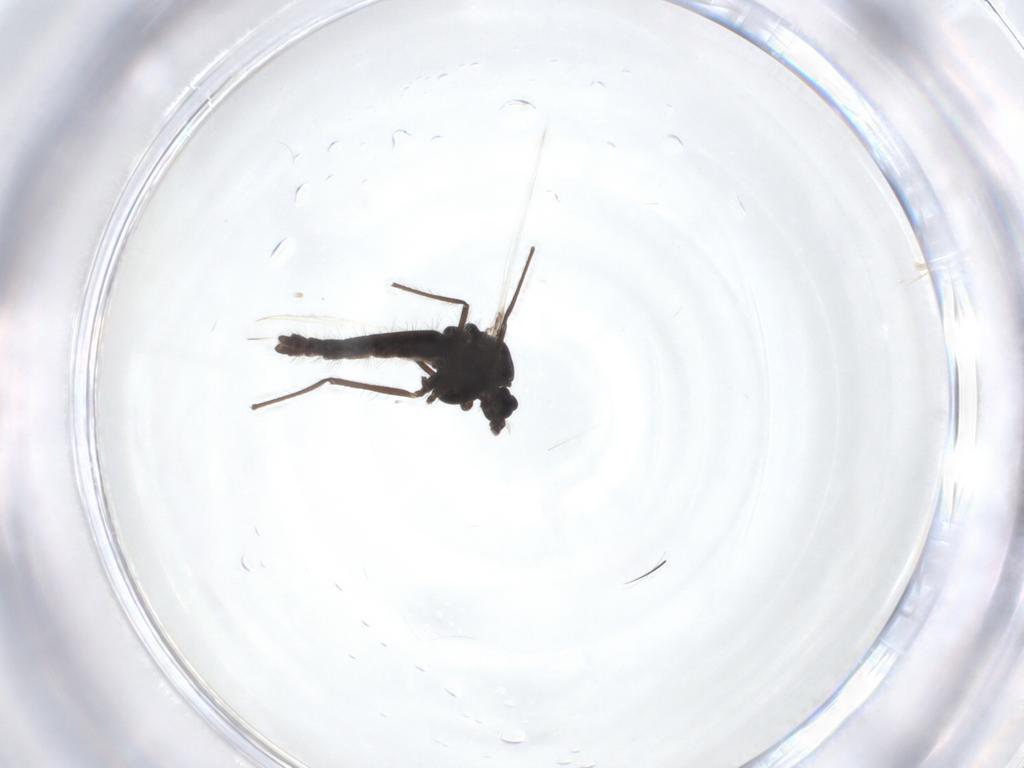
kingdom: Animalia
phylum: Arthropoda
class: Insecta
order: Diptera
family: Chironomidae
